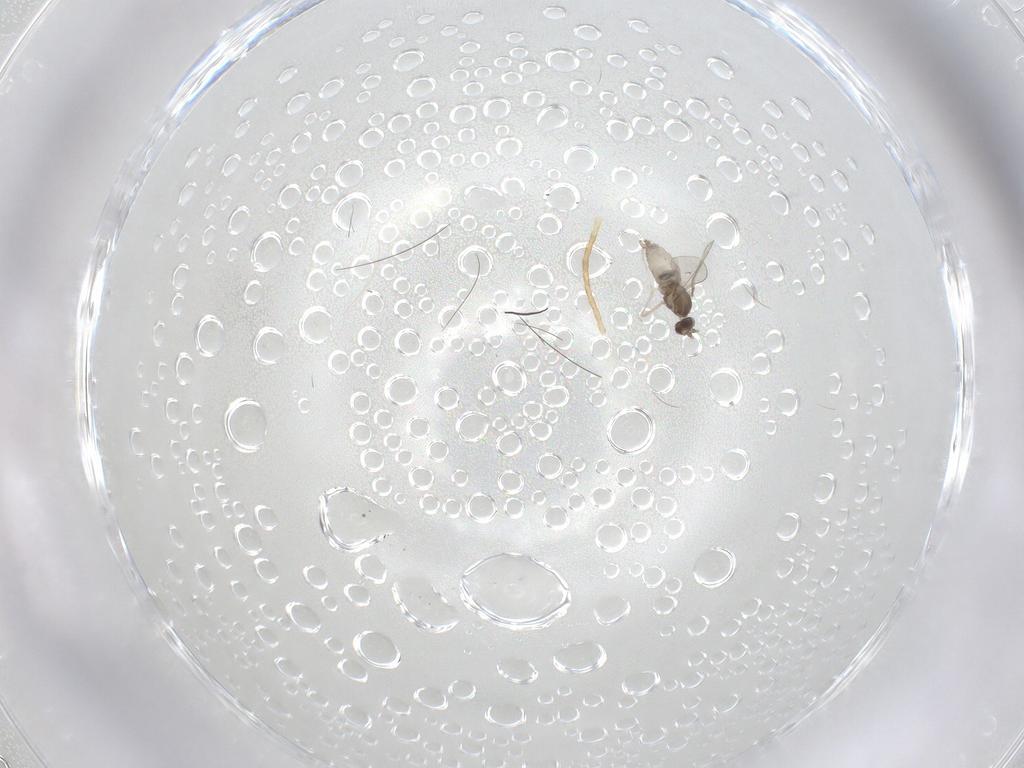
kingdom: Animalia
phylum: Arthropoda
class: Insecta
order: Diptera
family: Cecidomyiidae
